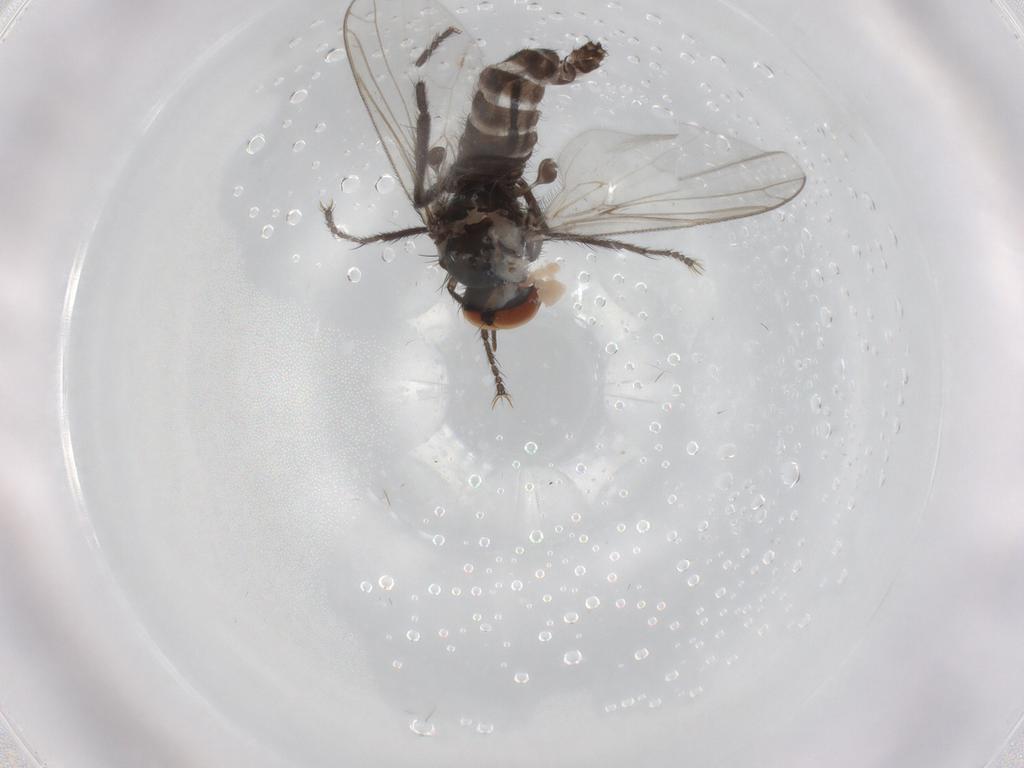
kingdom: Animalia
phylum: Arthropoda
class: Insecta
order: Diptera
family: Empididae
